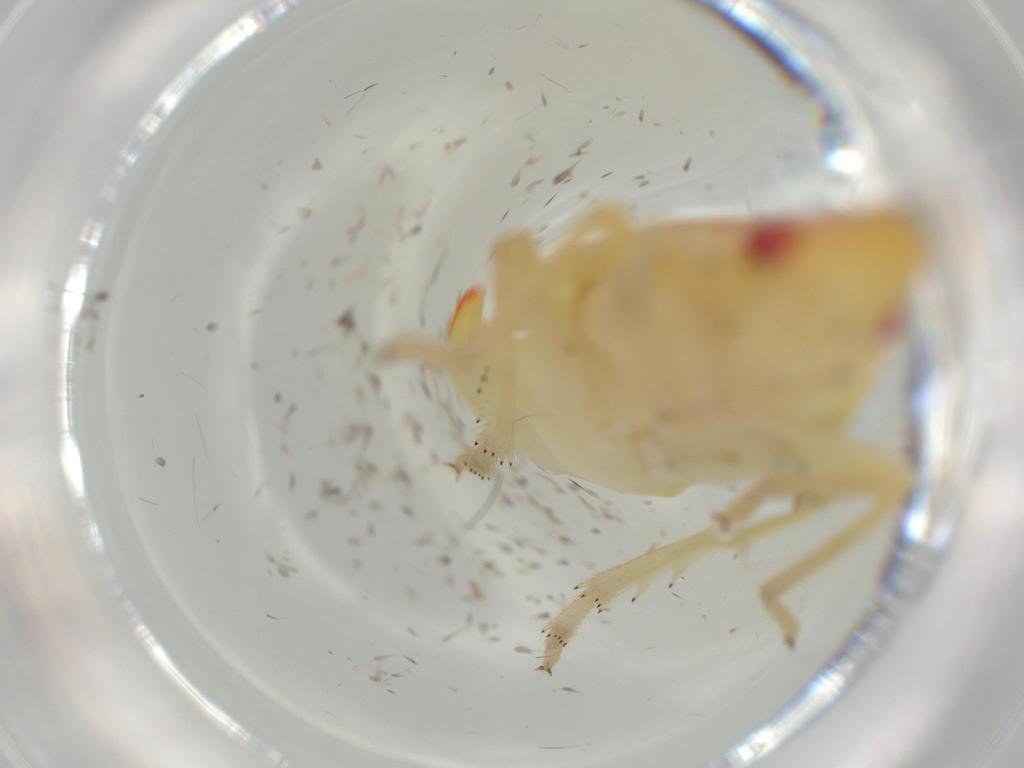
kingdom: Animalia
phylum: Arthropoda
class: Insecta
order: Hemiptera
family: Tropiduchidae
